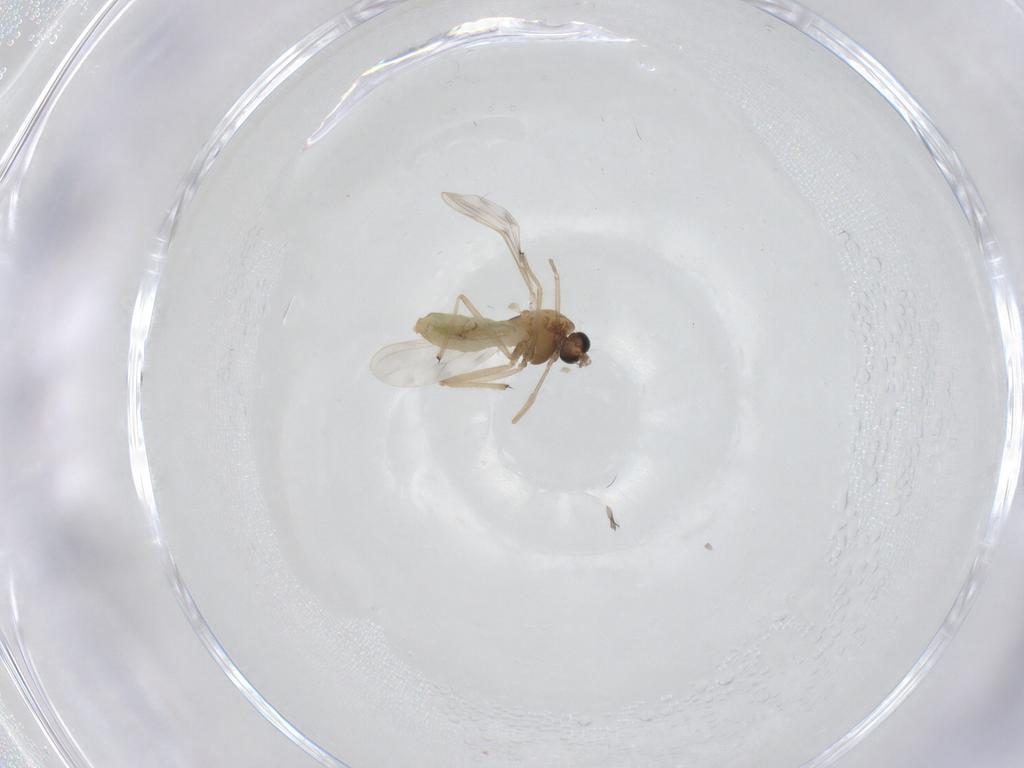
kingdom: Animalia
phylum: Arthropoda
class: Insecta
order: Diptera
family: Chironomidae
